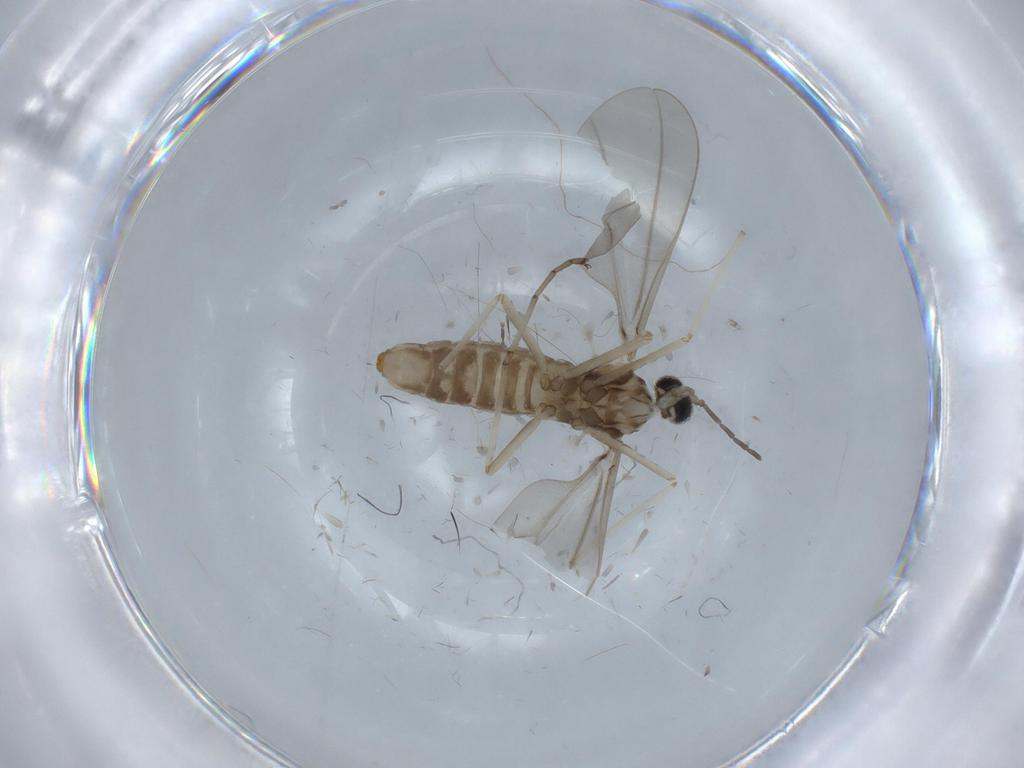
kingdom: Animalia
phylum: Arthropoda
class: Insecta
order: Diptera
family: Cecidomyiidae
